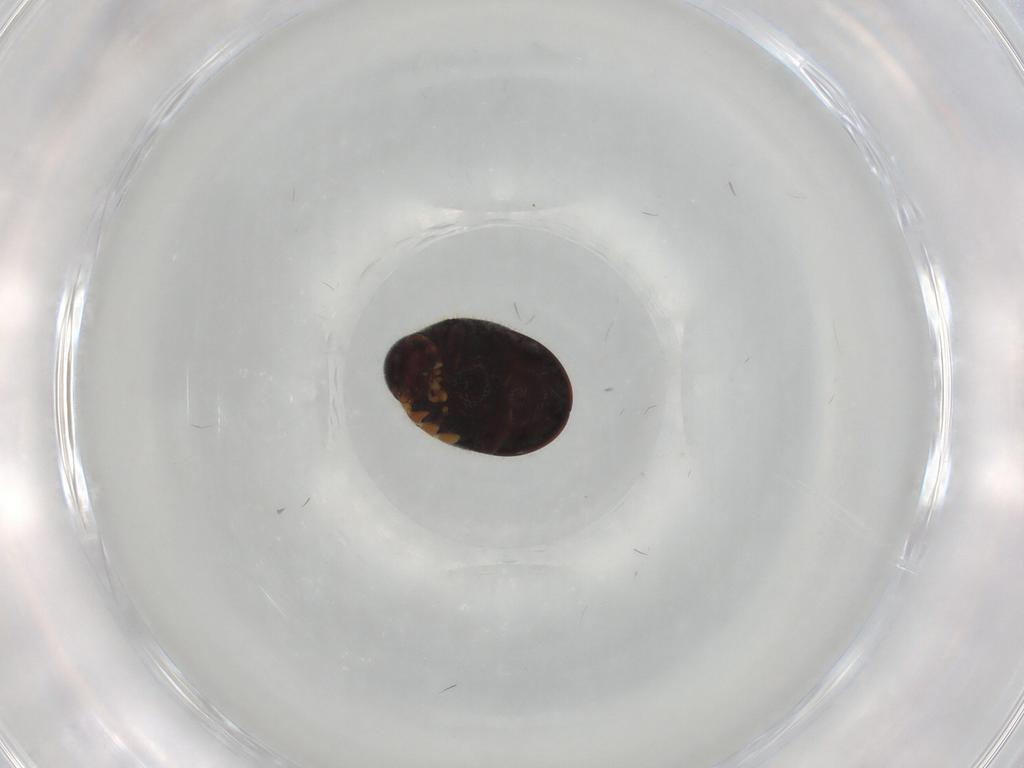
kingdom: Animalia
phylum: Arthropoda
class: Insecta
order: Coleoptera
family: Ptinidae
